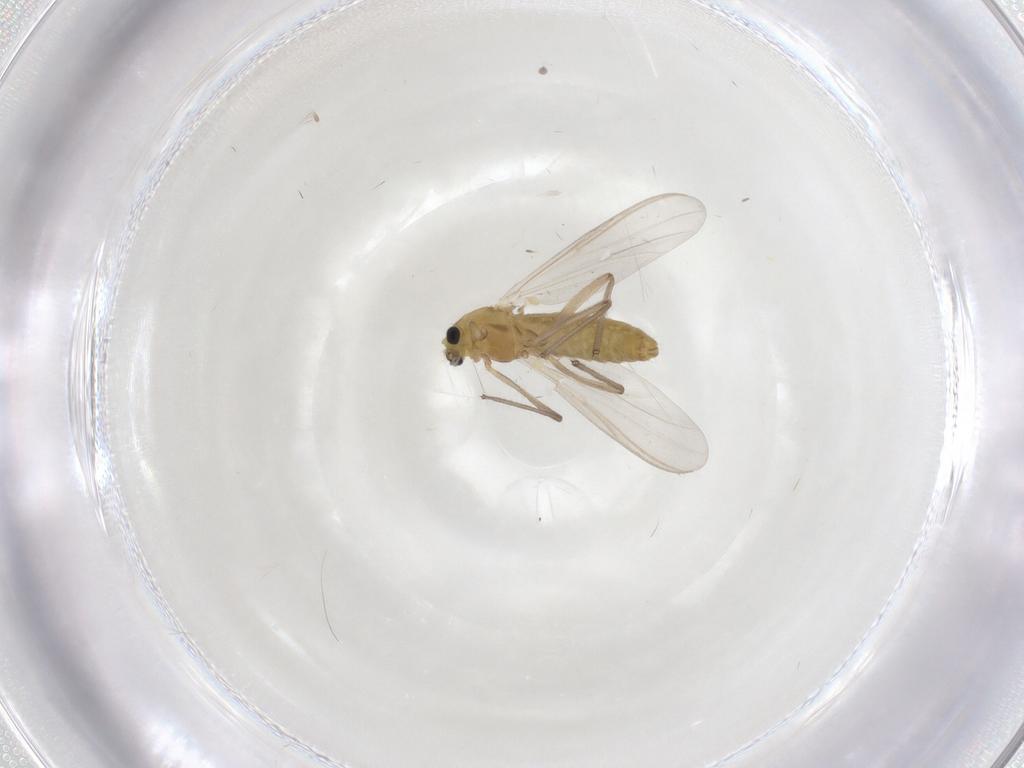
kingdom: Animalia
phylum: Arthropoda
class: Insecta
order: Diptera
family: Chironomidae
